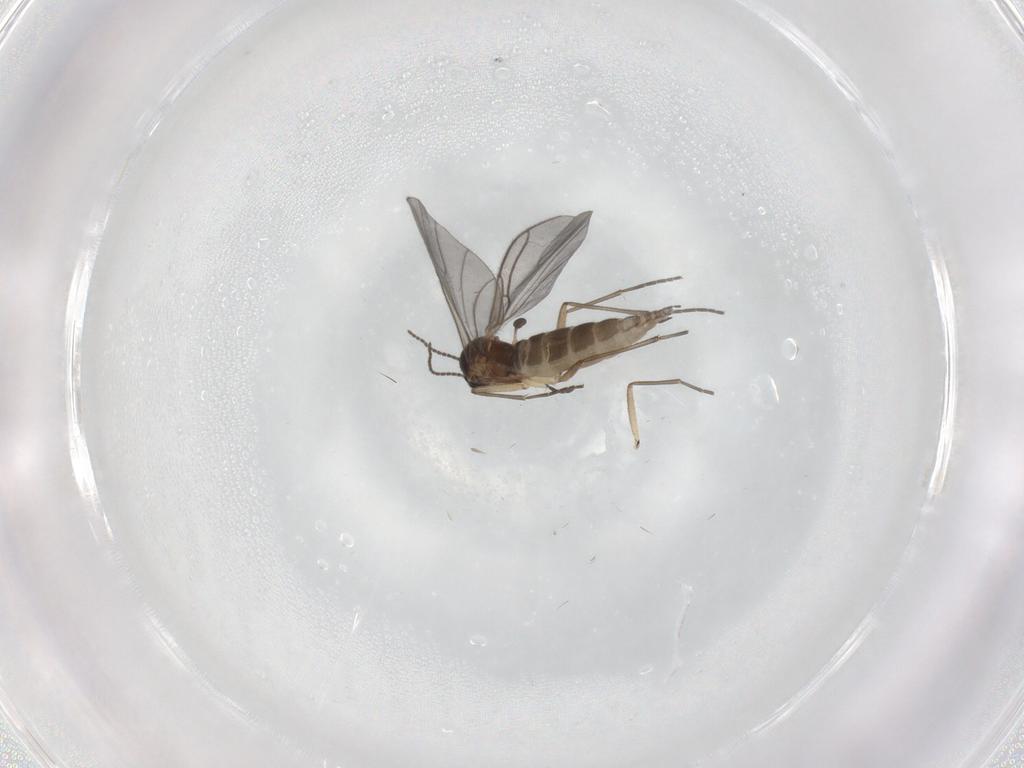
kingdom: Animalia
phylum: Arthropoda
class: Insecta
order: Diptera
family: Sciaridae
